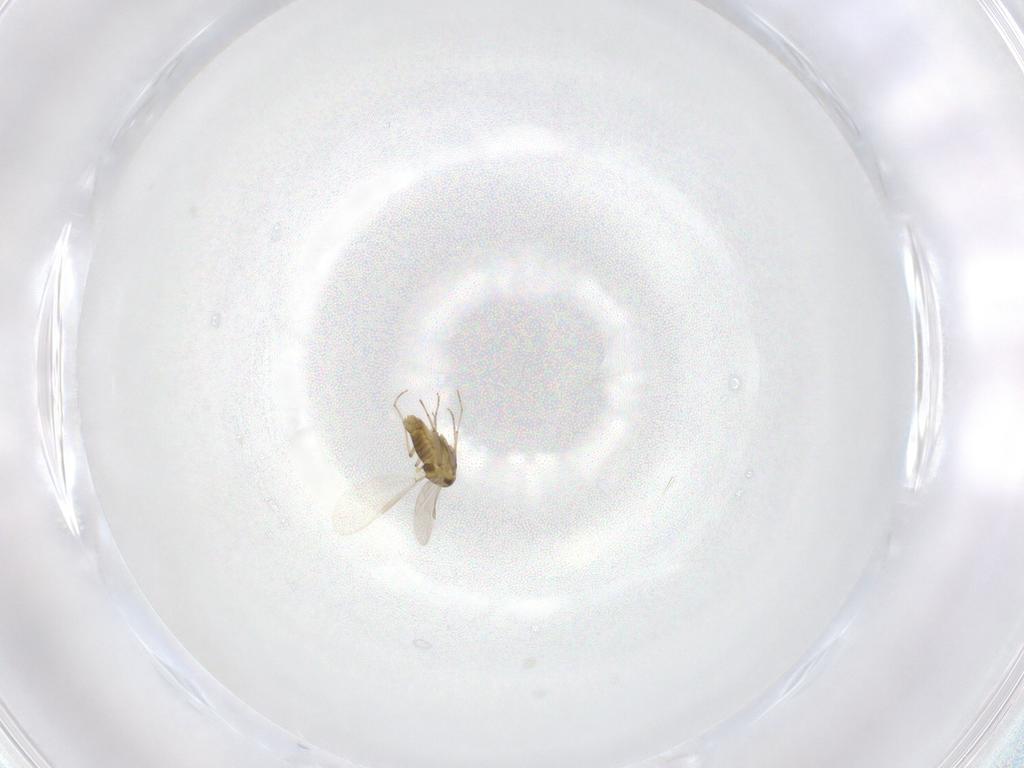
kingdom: Animalia
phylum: Arthropoda
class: Insecta
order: Diptera
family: Chironomidae
